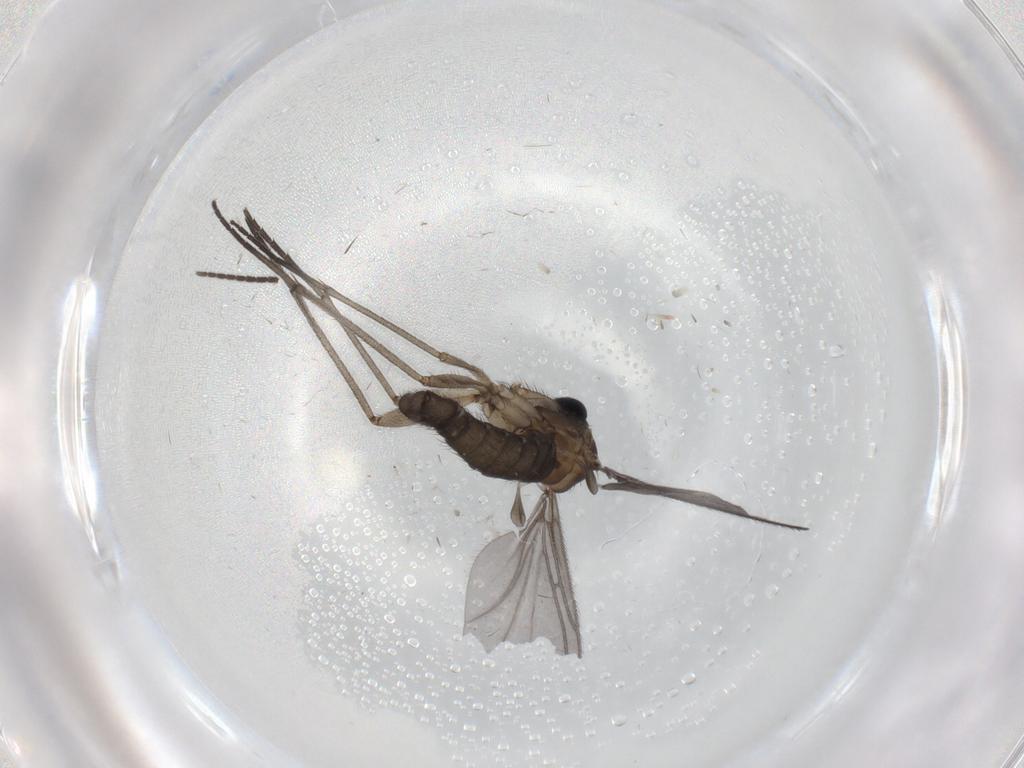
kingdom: Animalia
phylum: Arthropoda
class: Insecta
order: Diptera
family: Sciaridae
